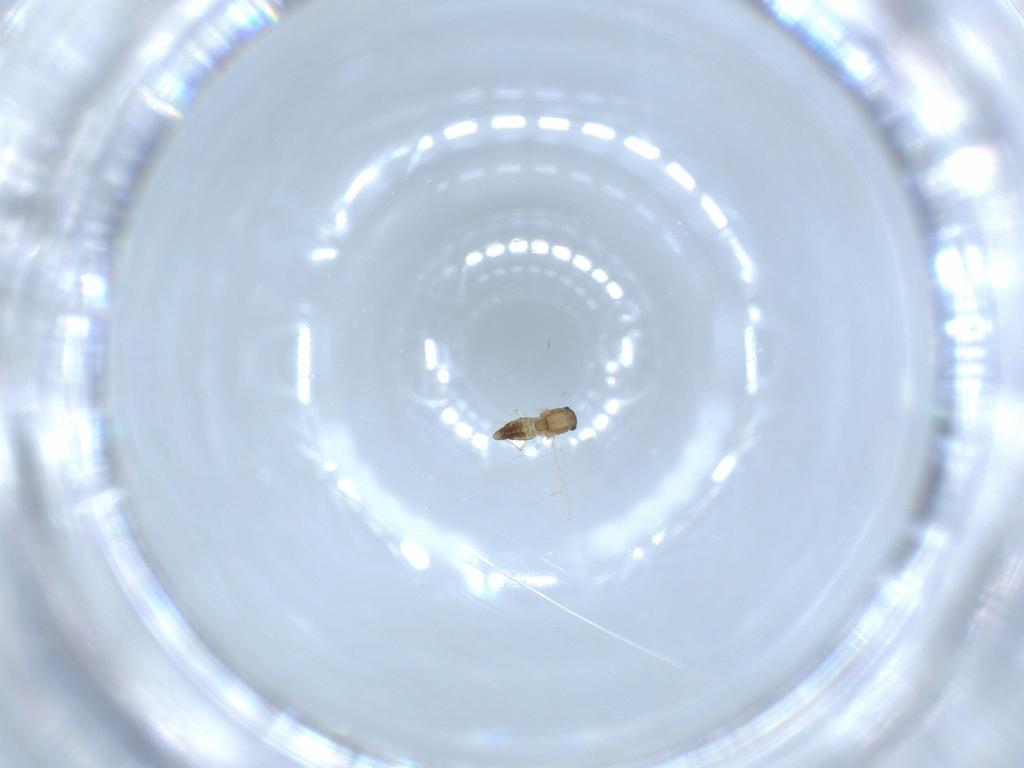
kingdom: Animalia
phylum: Arthropoda
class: Insecta
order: Diptera
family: Chironomidae
